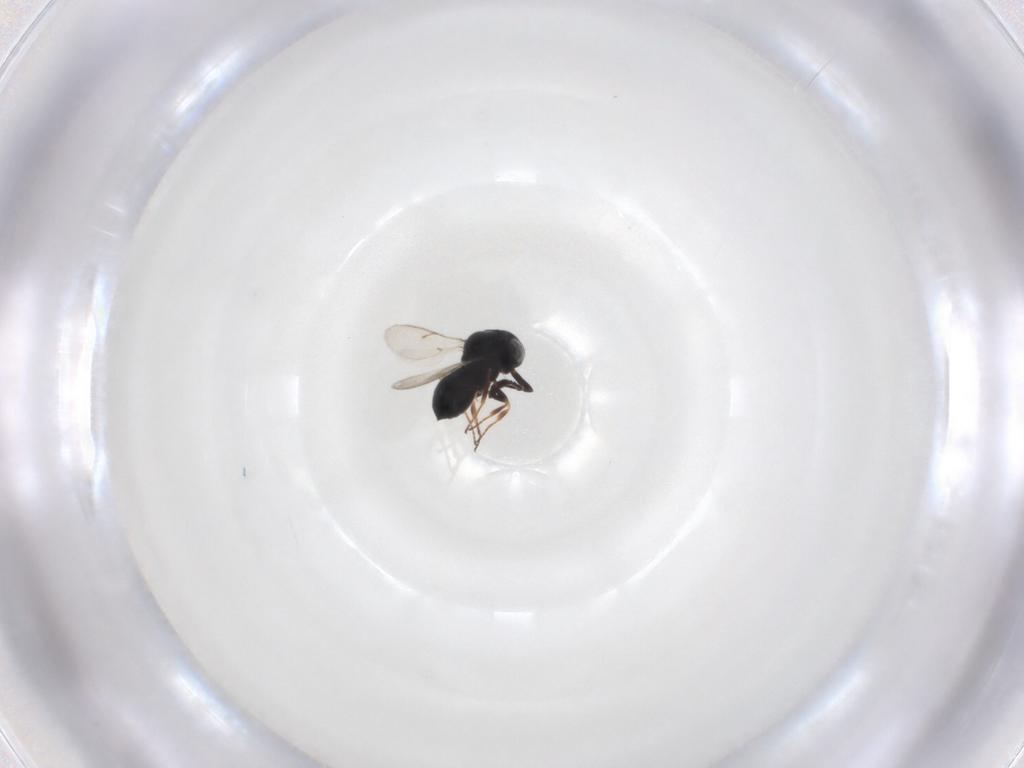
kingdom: Animalia
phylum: Arthropoda
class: Insecta
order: Hymenoptera
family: Scelionidae
